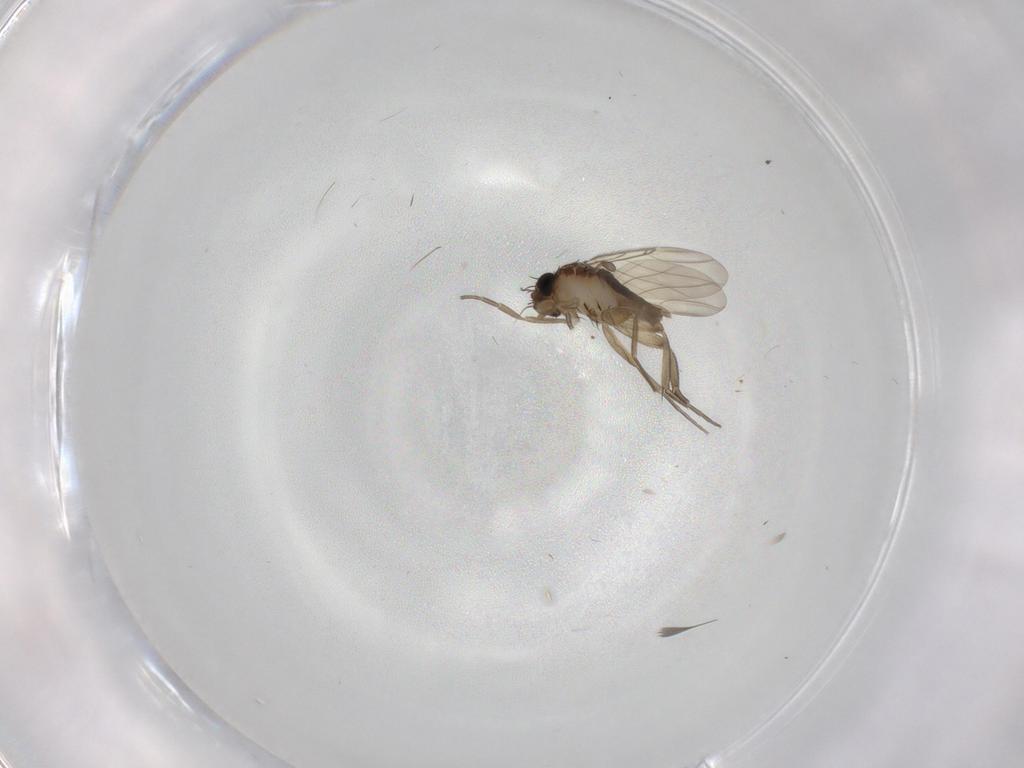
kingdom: Animalia
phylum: Arthropoda
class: Insecta
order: Diptera
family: Phoridae
